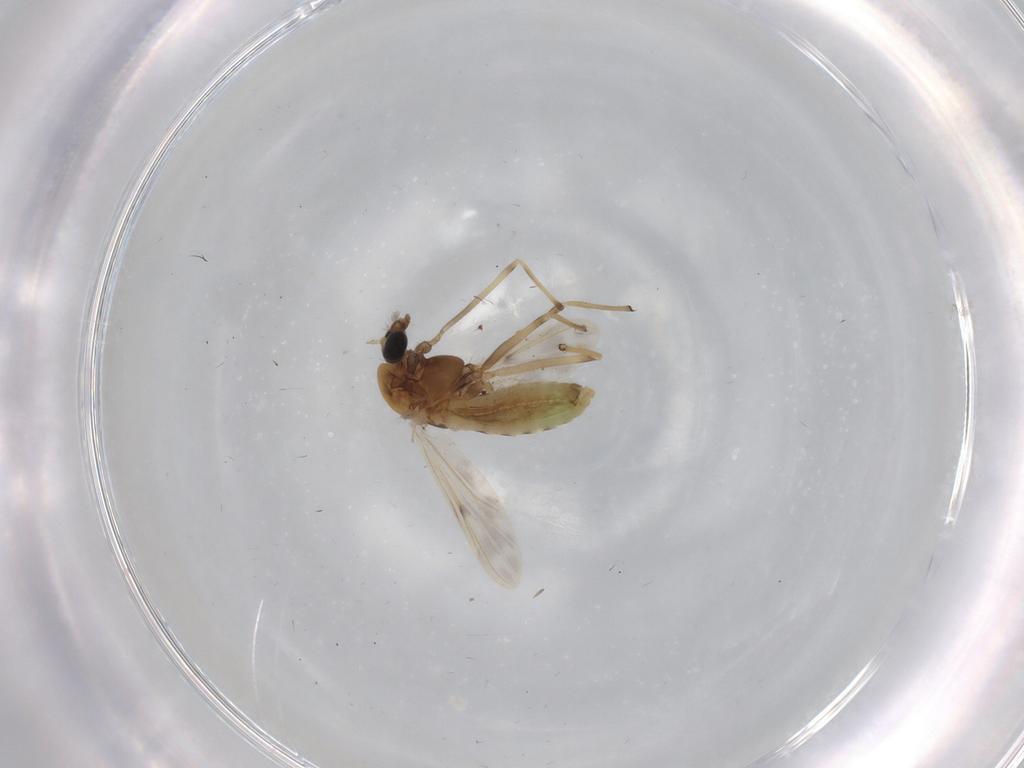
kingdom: Animalia
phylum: Arthropoda
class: Insecta
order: Diptera
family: Chironomidae
